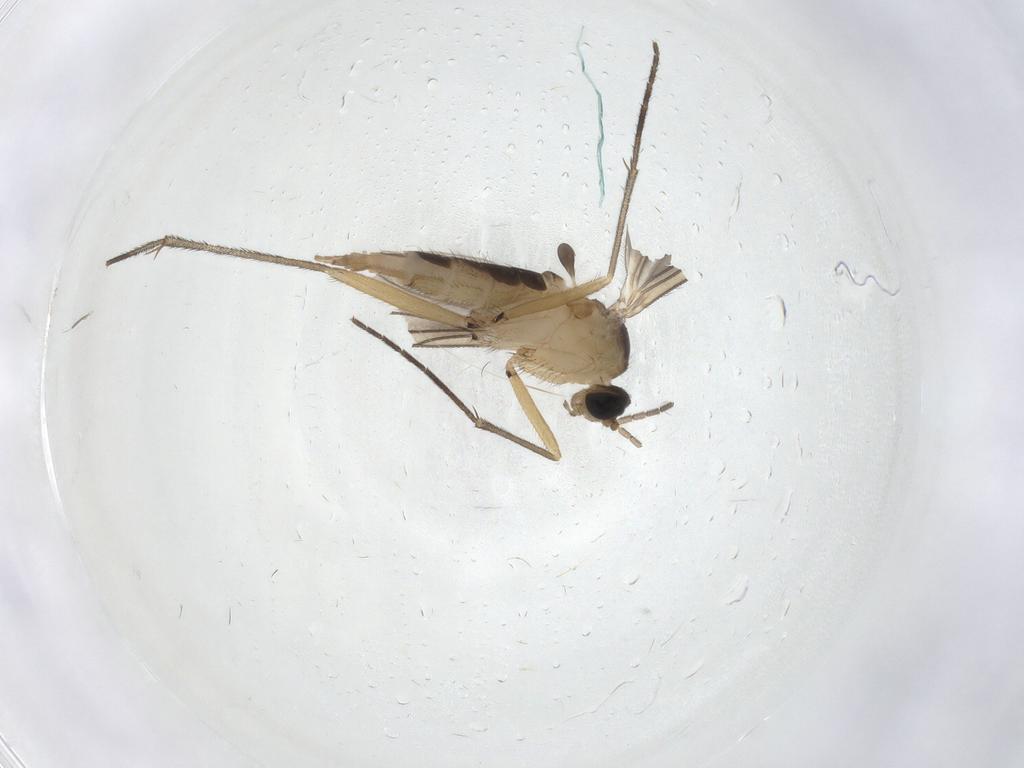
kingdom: Animalia
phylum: Arthropoda
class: Insecta
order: Diptera
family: Sciaridae
